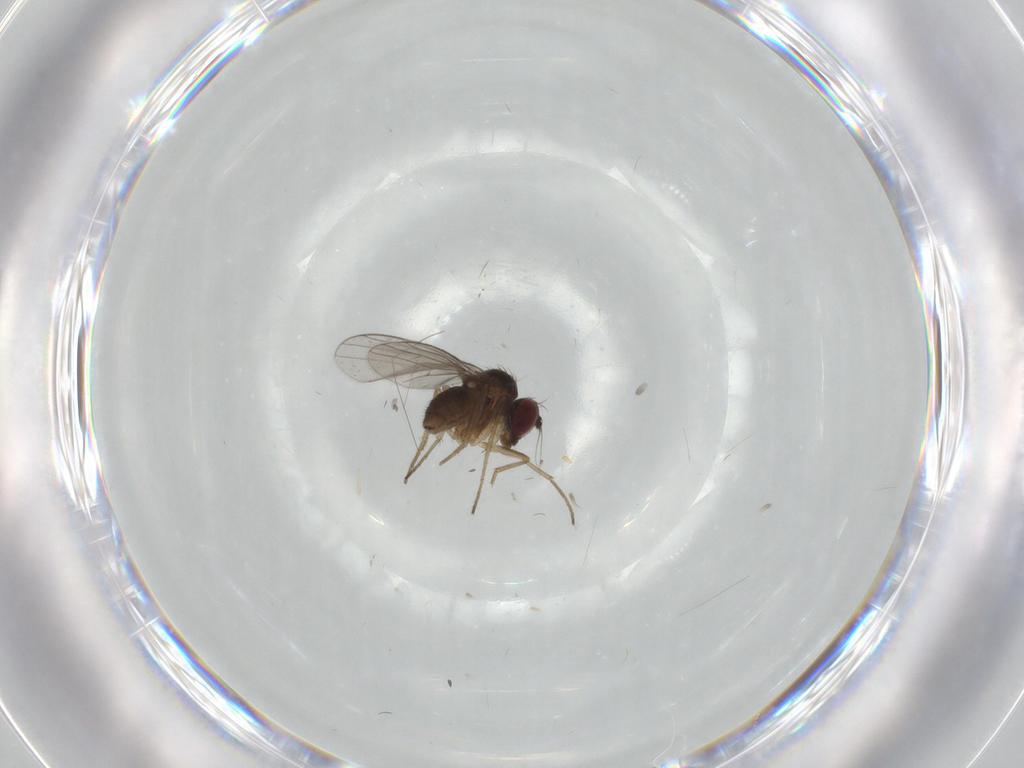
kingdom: Animalia
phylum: Arthropoda
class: Insecta
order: Diptera
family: Dolichopodidae
